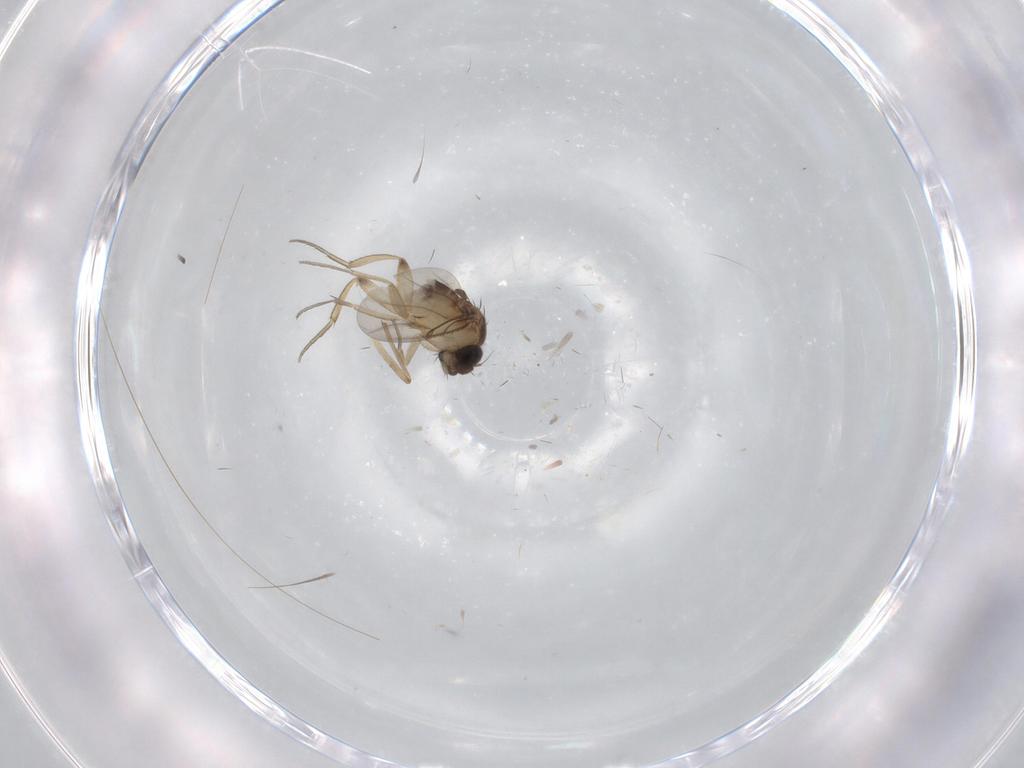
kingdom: Animalia
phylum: Arthropoda
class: Insecta
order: Diptera
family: Chironomidae
